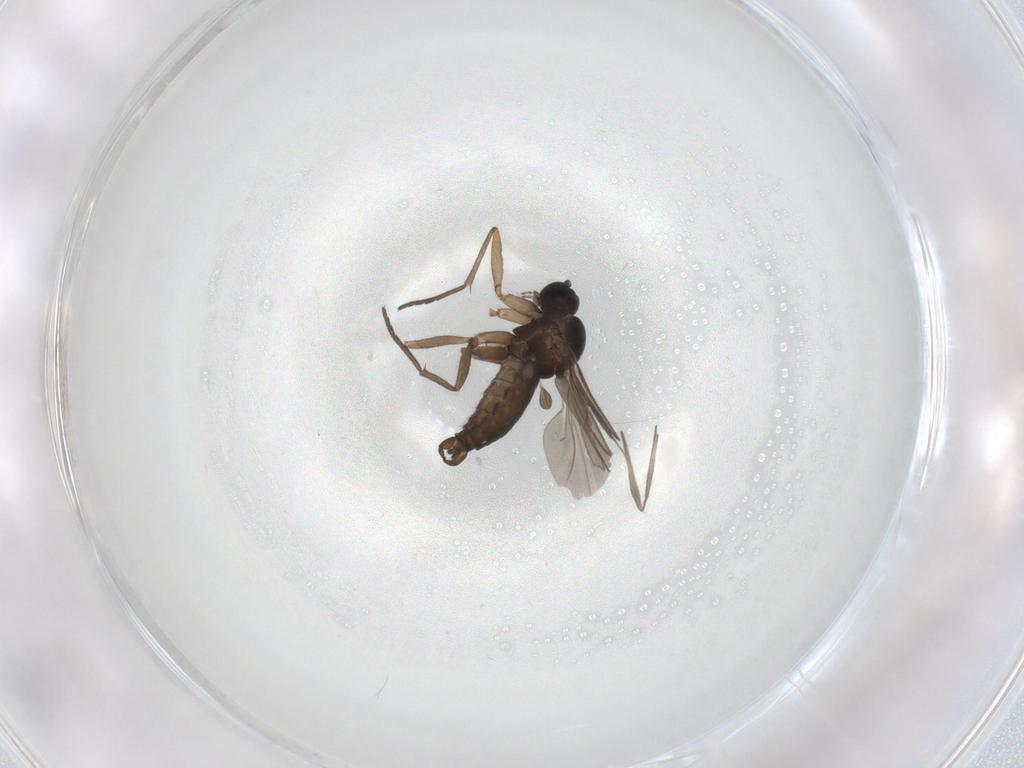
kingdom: Animalia
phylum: Arthropoda
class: Insecta
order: Diptera
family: Sciaridae
